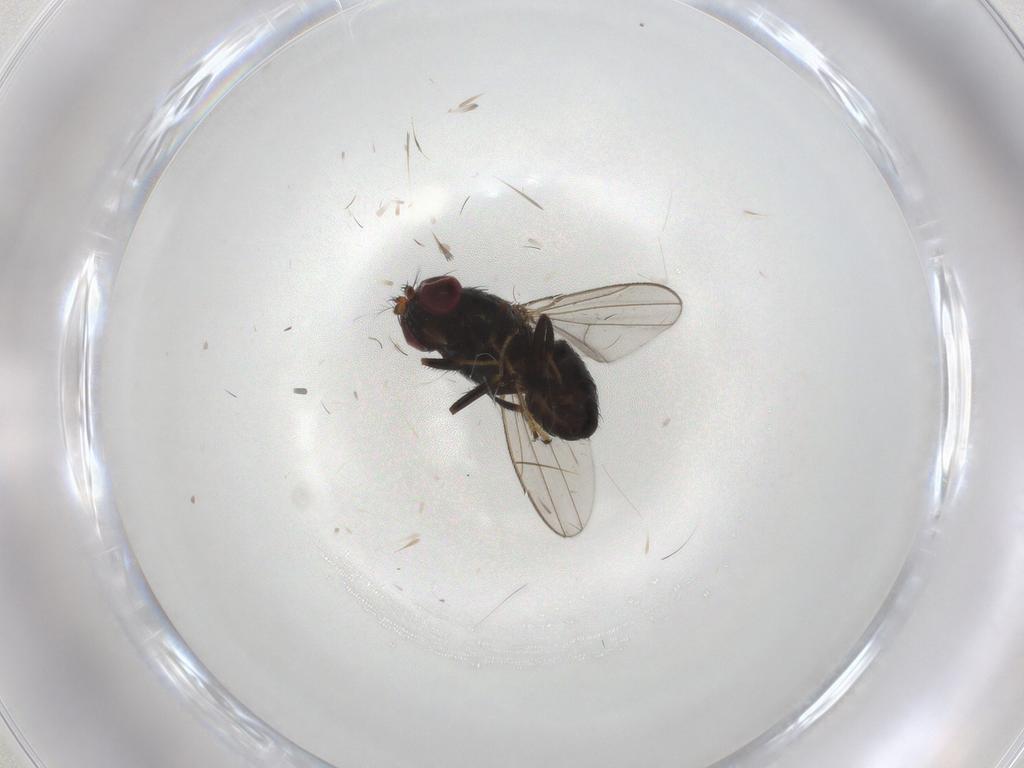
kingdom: Animalia
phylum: Arthropoda
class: Insecta
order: Diptera
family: Ephydridae
